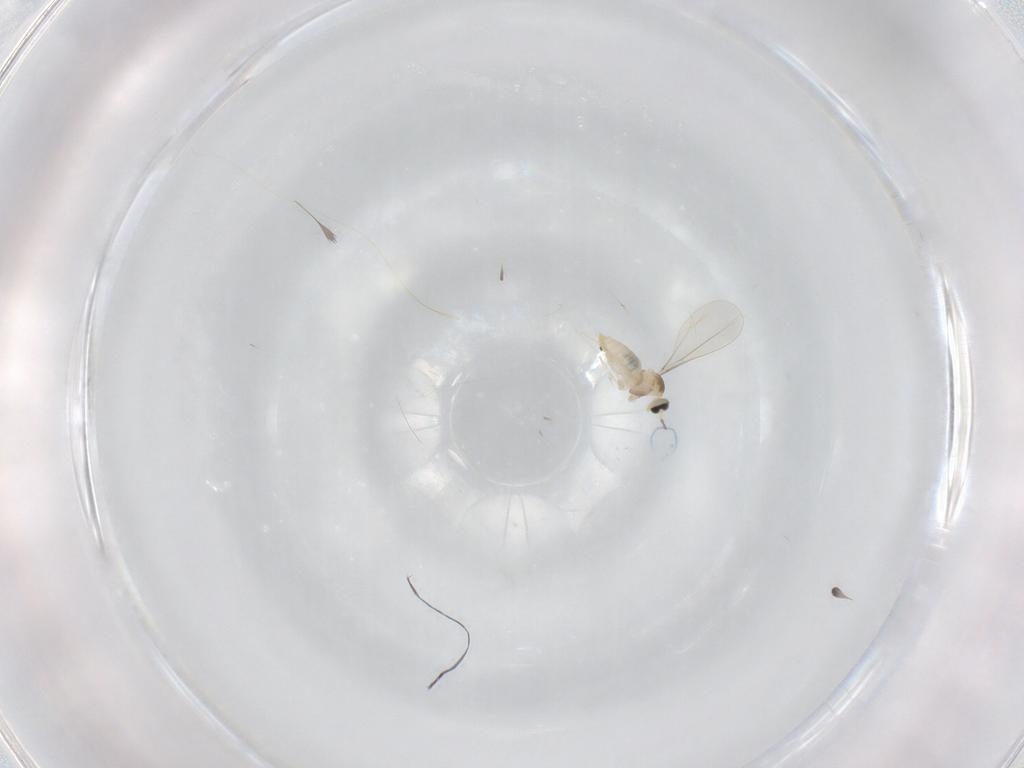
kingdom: Animalia
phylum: Arthropoda
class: Insecta
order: Diptera
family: Cecidomyiidae
